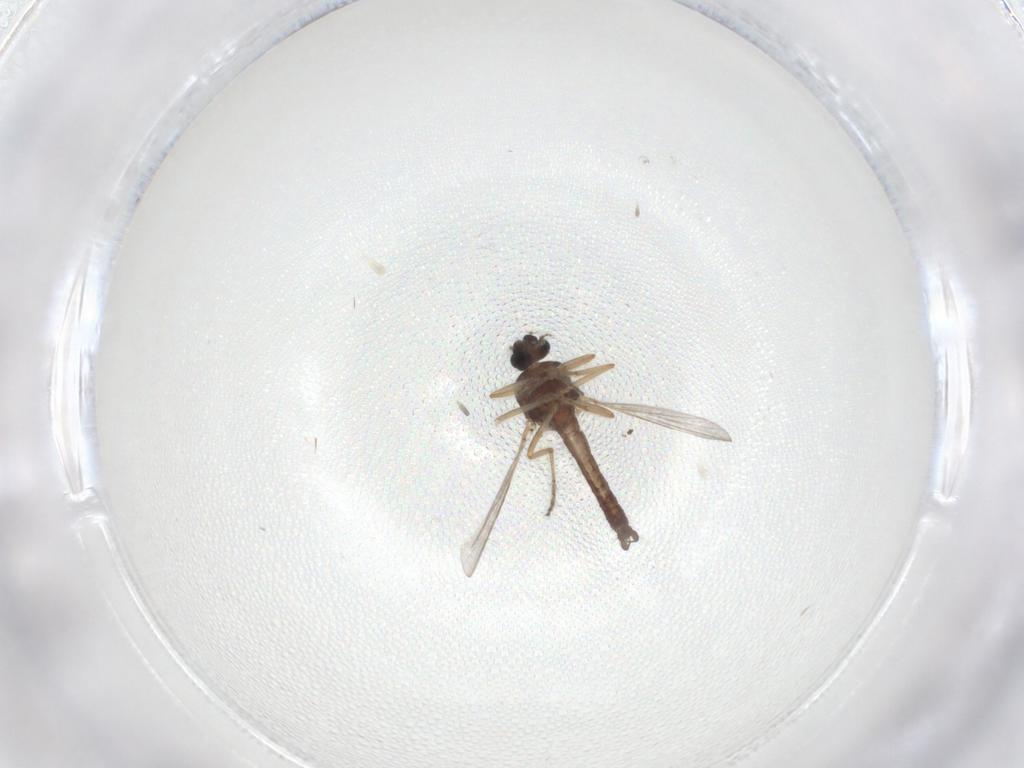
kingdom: Animalia
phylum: Arthropoda
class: Insecta
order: Diptera
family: Ceratopogonidae
